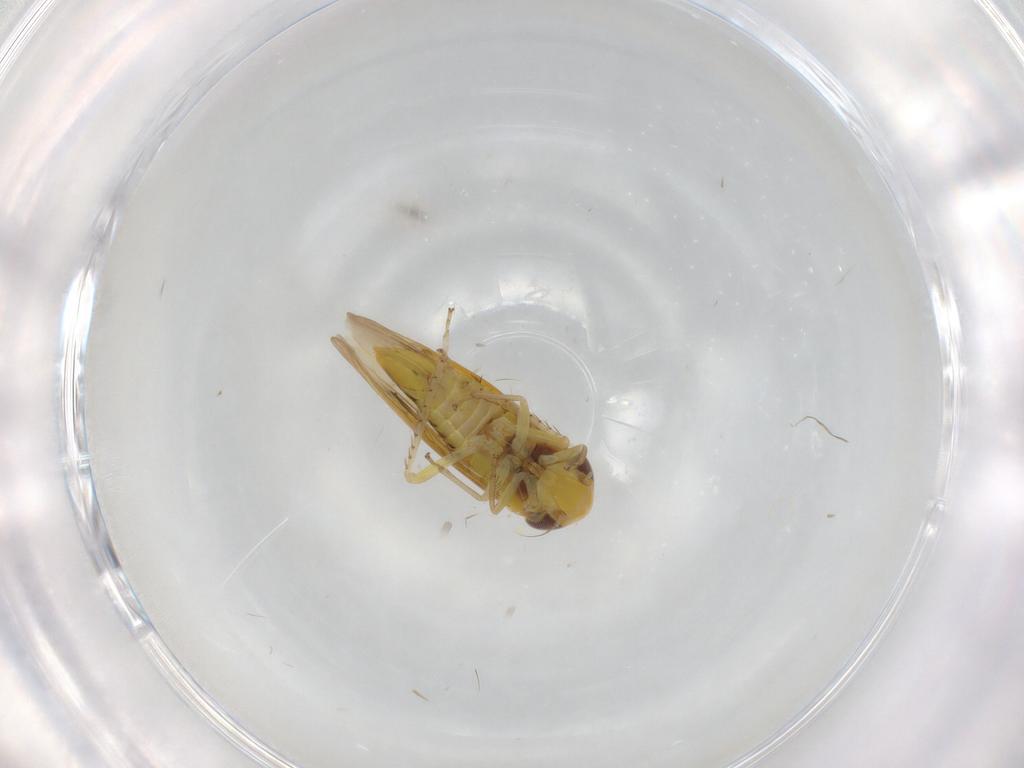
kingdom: Animalia
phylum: Arthropoda
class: Insecta
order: Hemiptera
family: Cicadellidae
